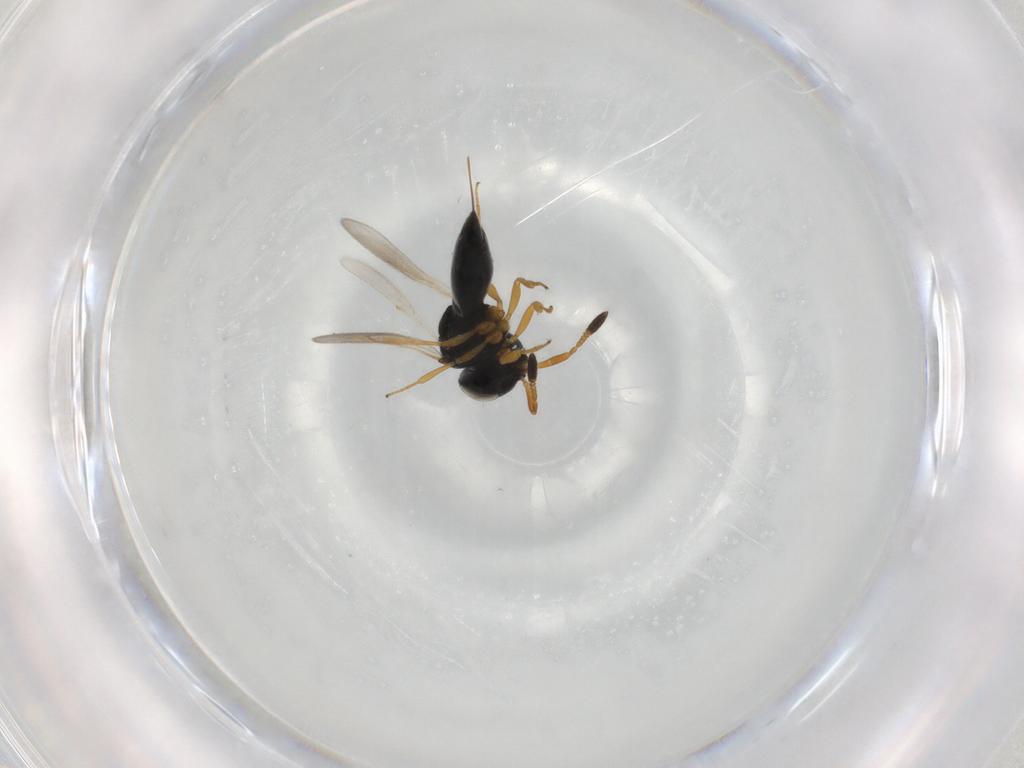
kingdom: Animalia
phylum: Arthropoda
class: Insecta
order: Hymenoptera
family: Scelionidae
